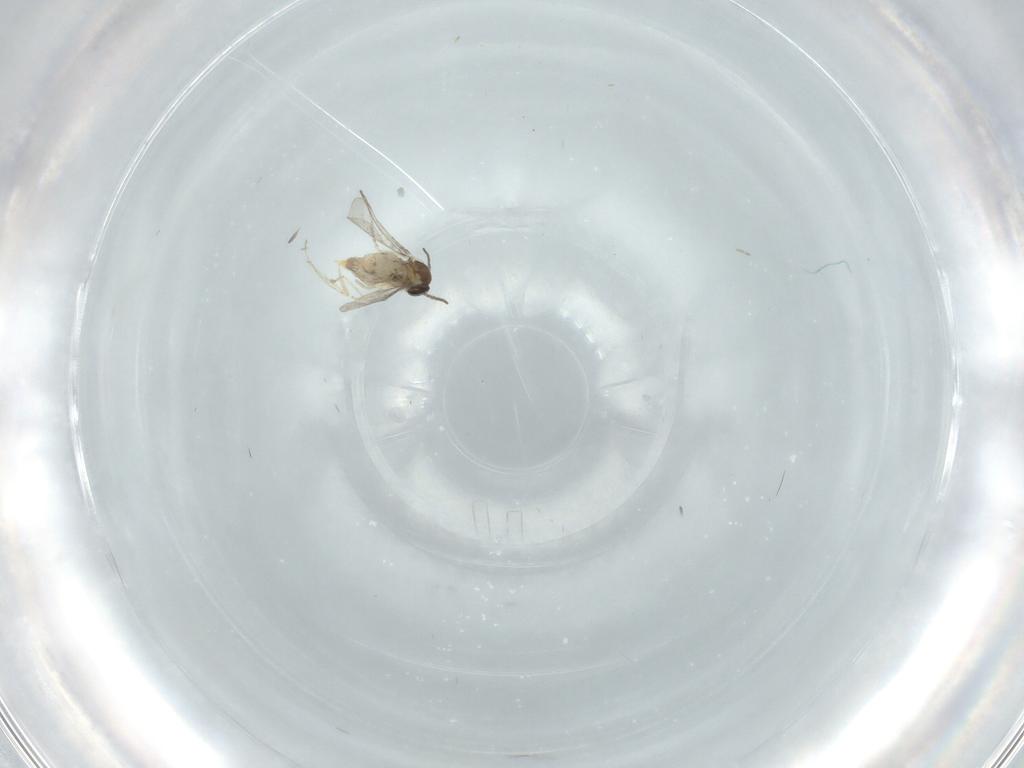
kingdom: Animalia
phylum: Arthropoda
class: Insecta
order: Diptera
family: Cecidomyiidae
